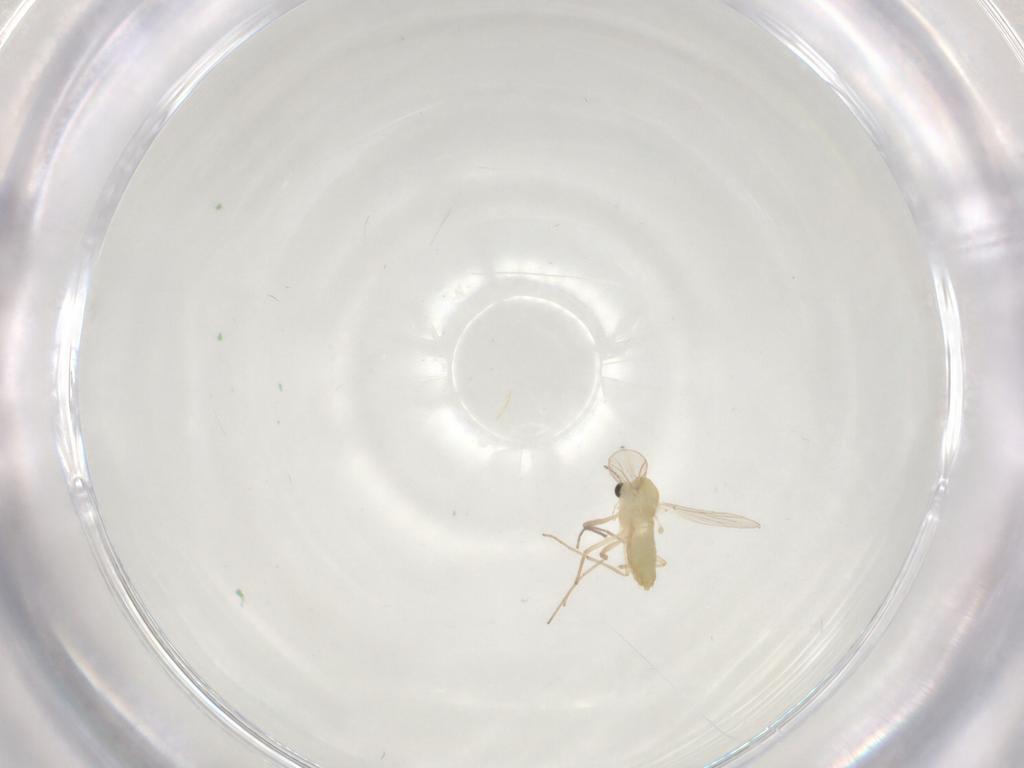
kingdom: Animalia
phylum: Arthropoda
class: Insecta
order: Diptera
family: Chironomidae
